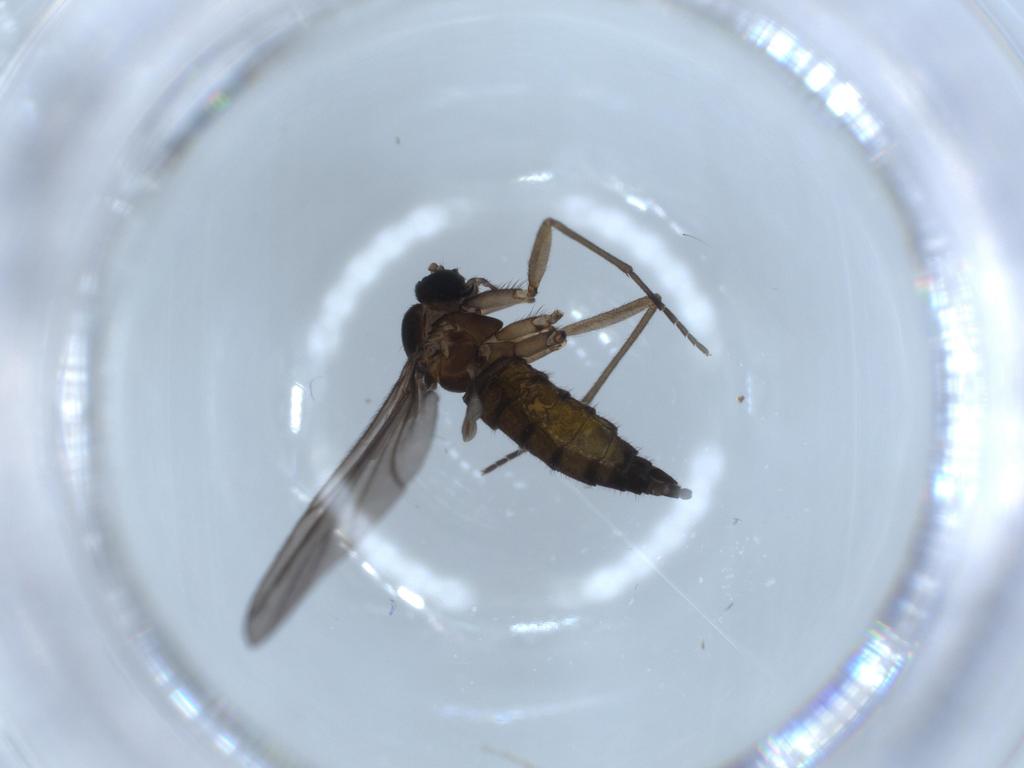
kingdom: Animalia
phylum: Arthropoda
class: Insecta
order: Diptera
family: Sciaridae
